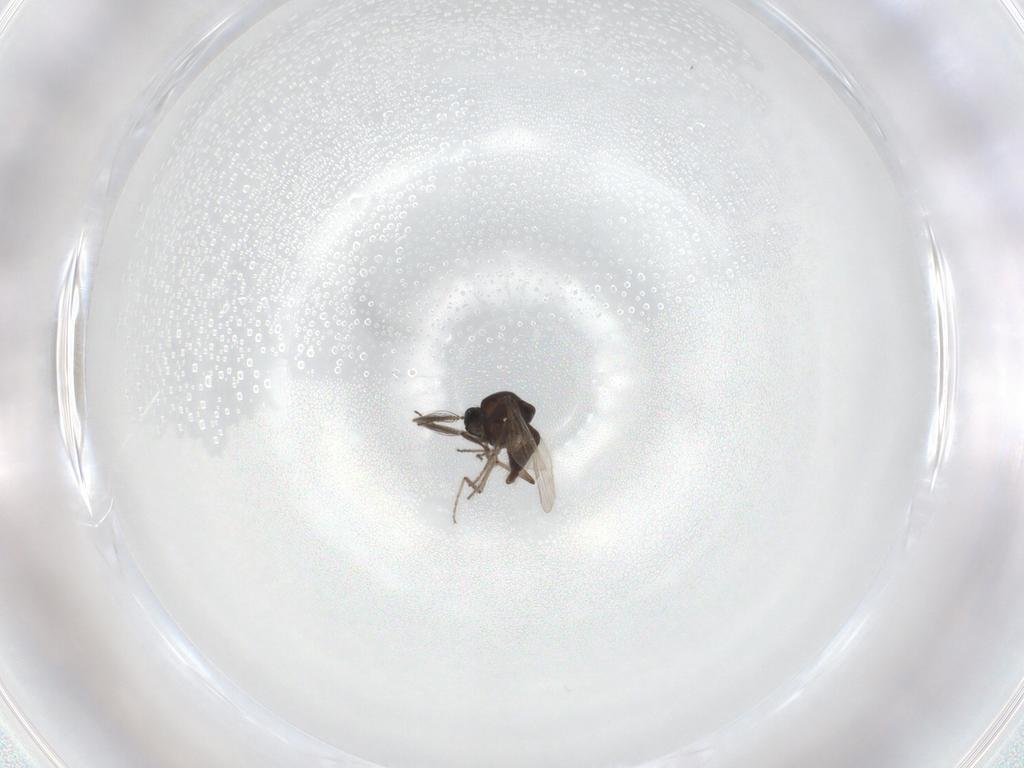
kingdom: Animalia
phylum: Arthropoda
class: Insecta
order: Diptera
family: Ceratopogonidae
